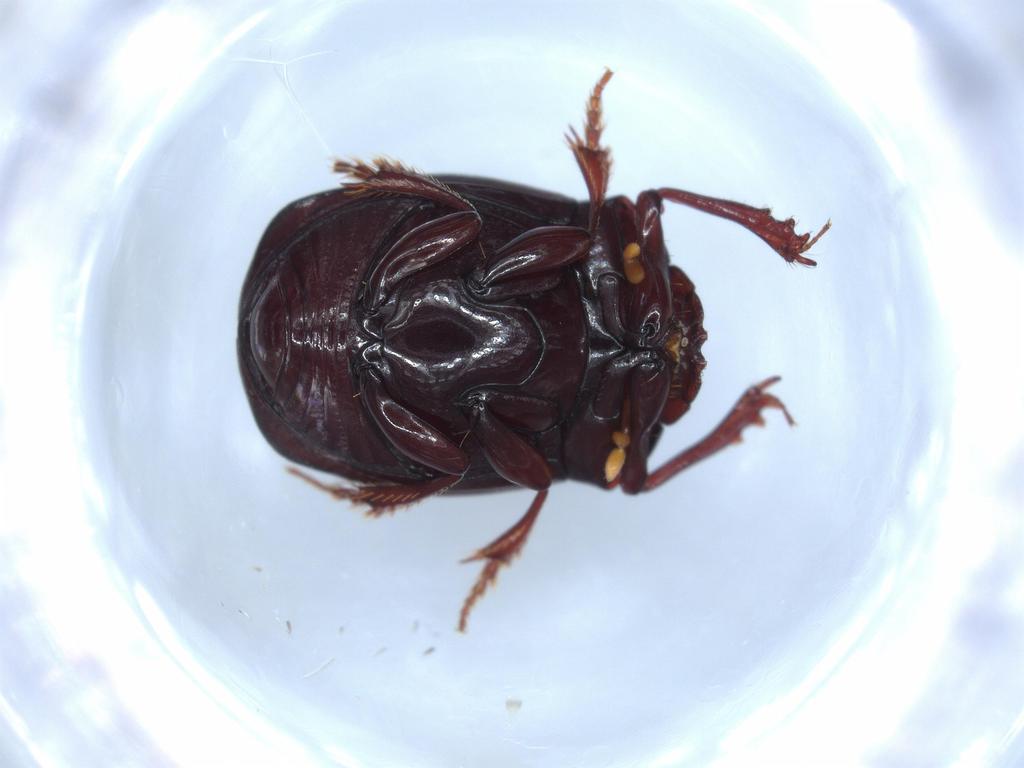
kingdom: Animalia
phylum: Arthropoda
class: Insecta
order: Coleoptera
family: Scarabaeidae
